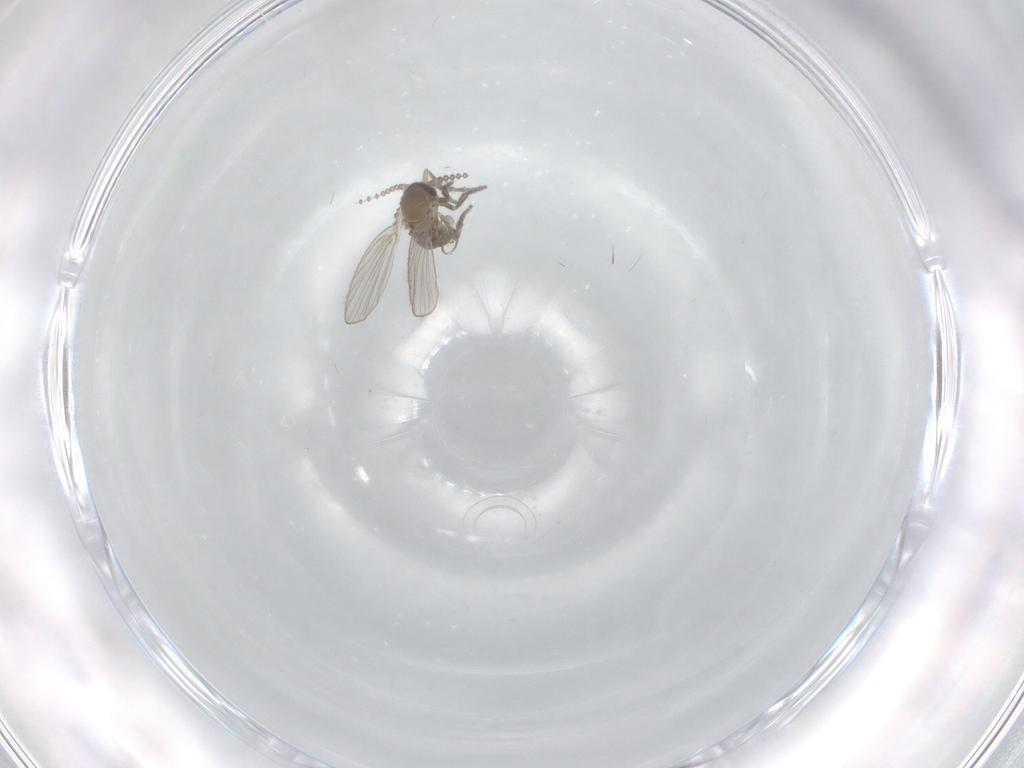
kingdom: Animalia
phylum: Arthropoda
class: Insecta
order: Diptera
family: Psychodidae
